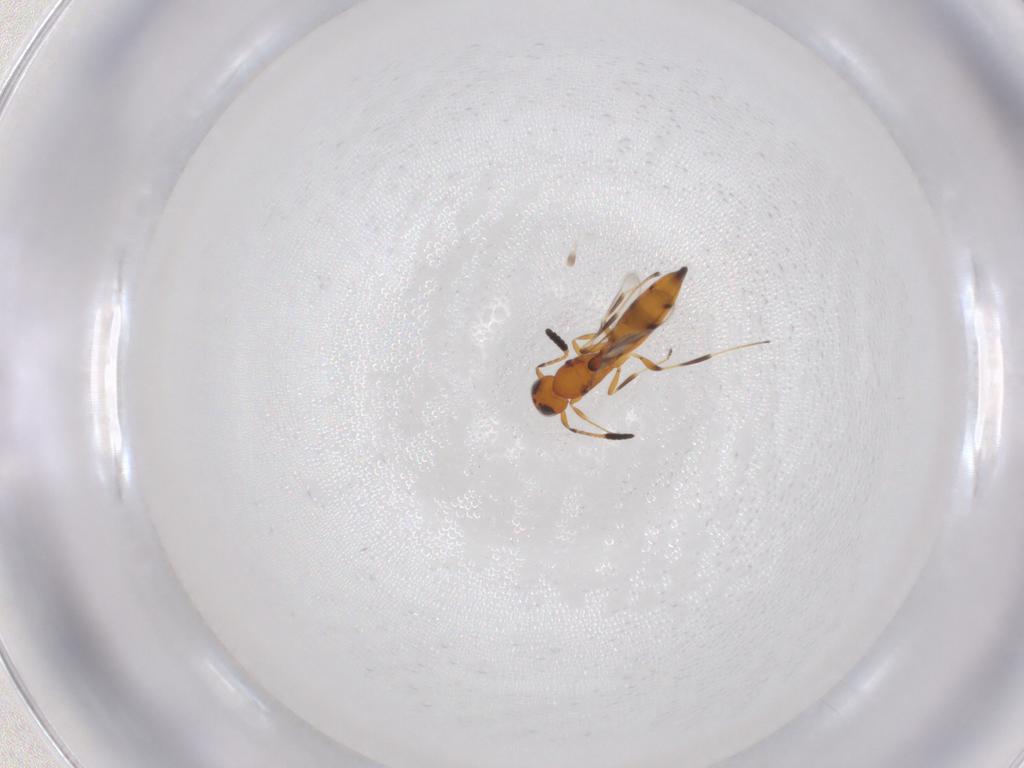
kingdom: Animalia
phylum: Arthropoda
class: Insecta
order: Hymenoptera
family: Scelionidae
